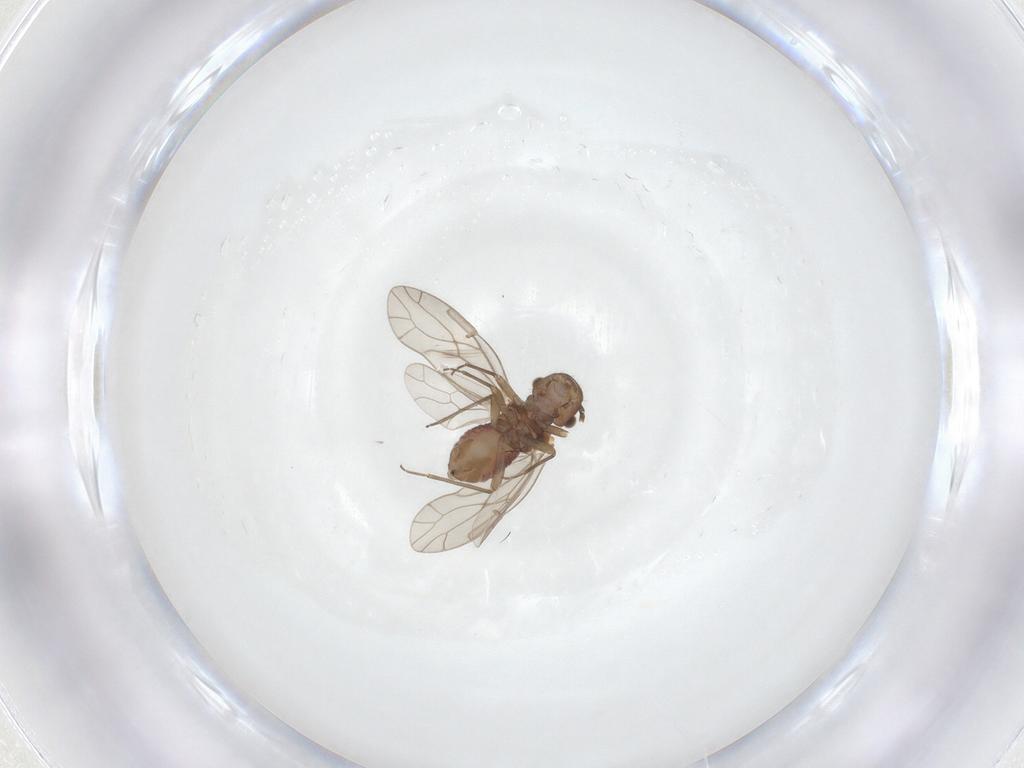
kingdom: Animalia
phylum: Arthropoda
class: Insecta
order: Psocodea
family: Ectopsocidae
